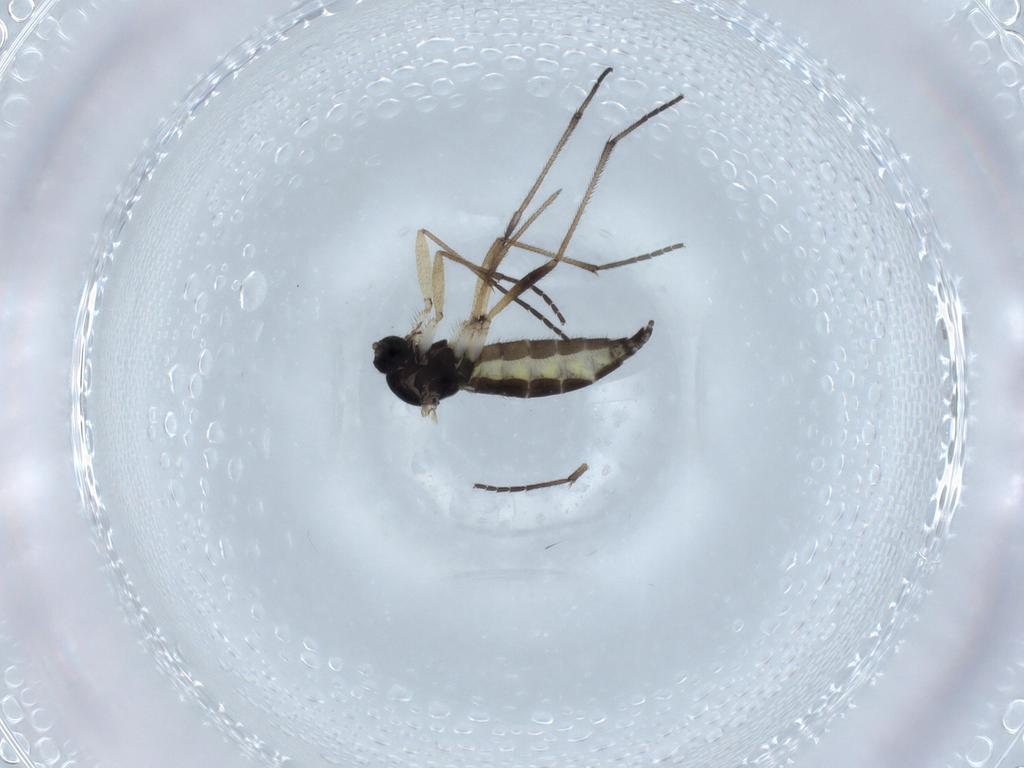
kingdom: Animalia
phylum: Arthropoda
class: Insecta
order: Diptera
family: Sciaridae
